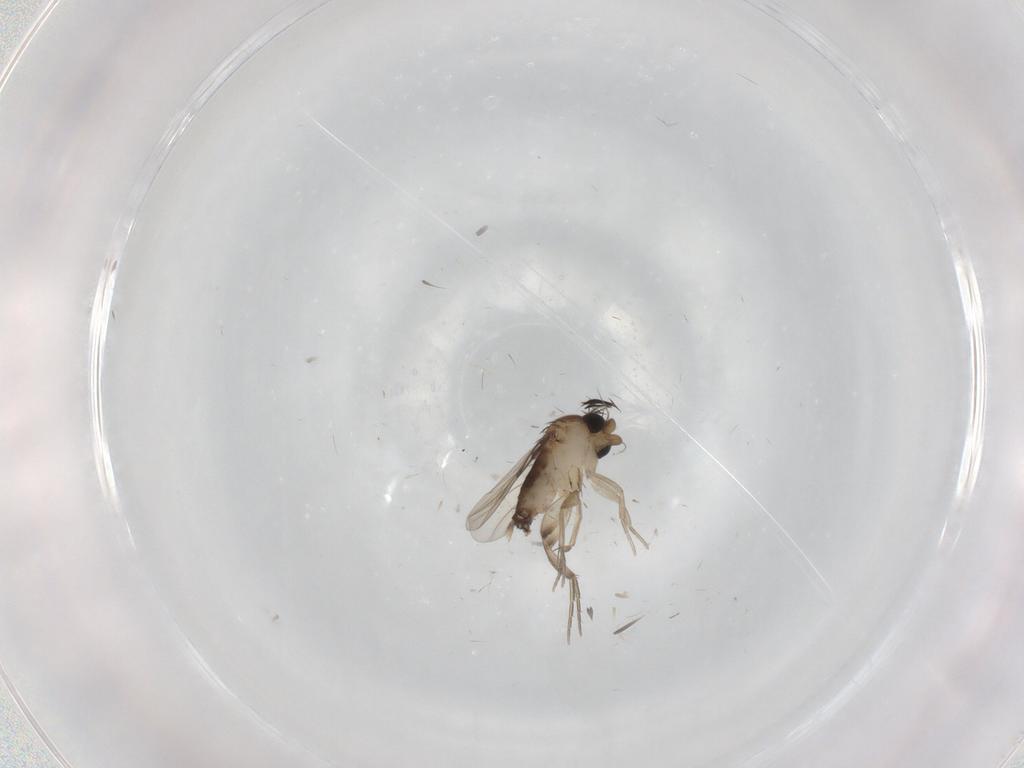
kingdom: Animalia
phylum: Arthropoda
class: Insecta
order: Diptera
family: Phoridae
